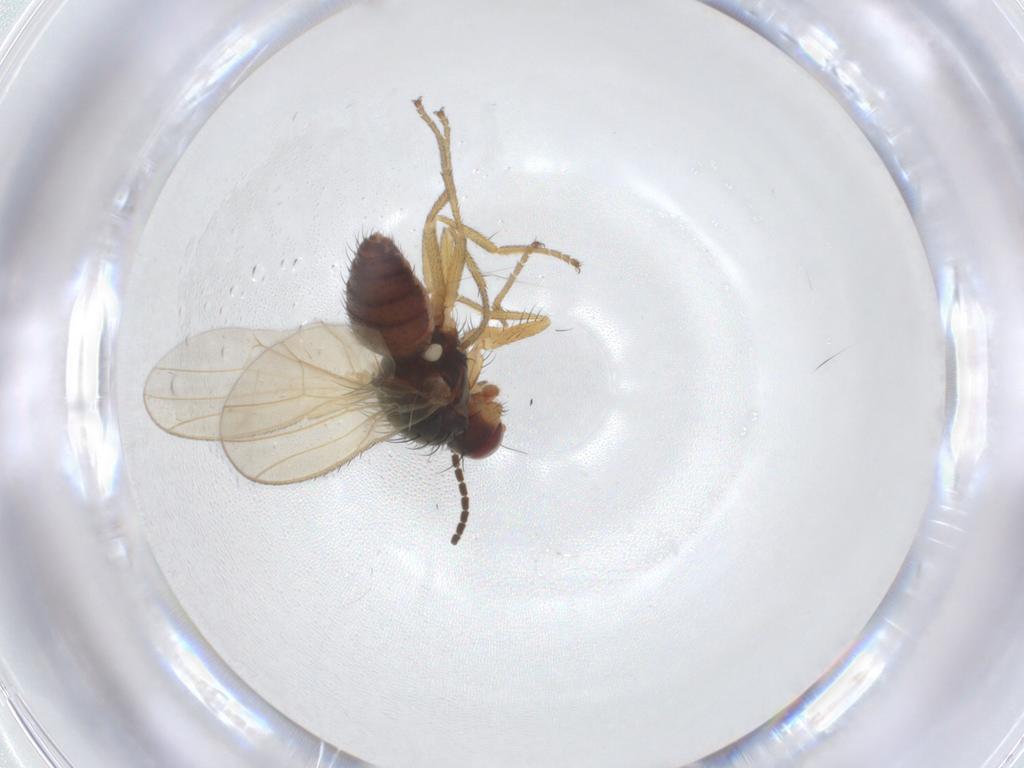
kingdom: Animalia
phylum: Arthropoda
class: Insecta
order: Diptera
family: Heleomyzidae
